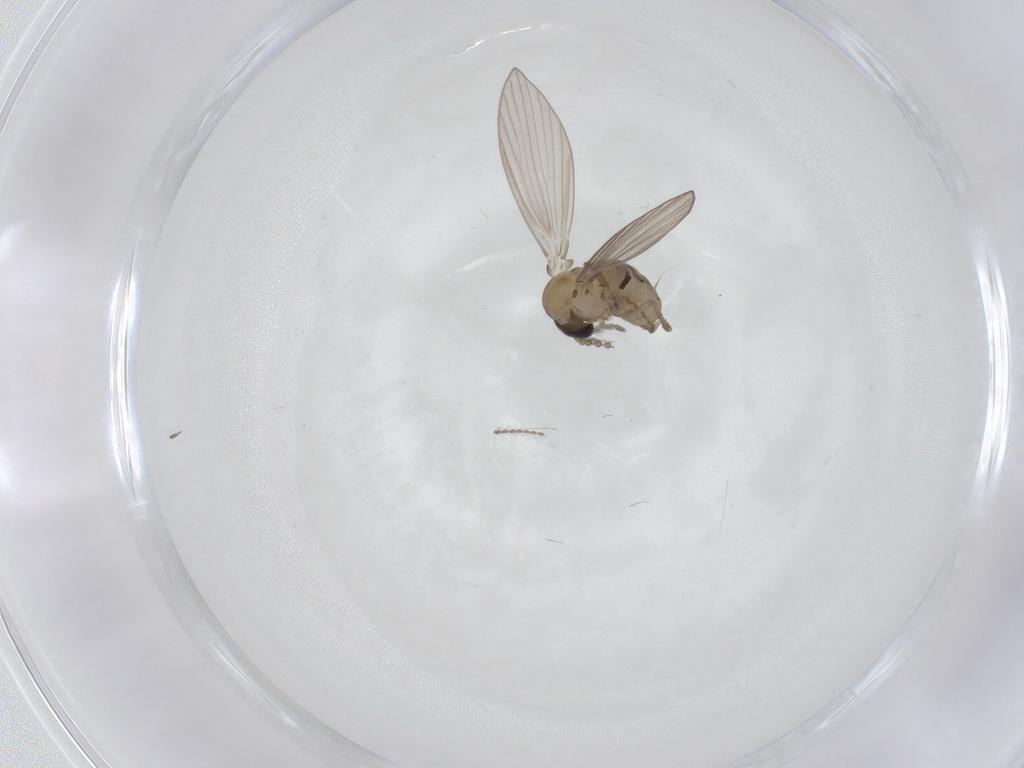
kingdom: Animalia
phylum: Arthropoda
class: Insecta
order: Diptera
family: Psychodidae
